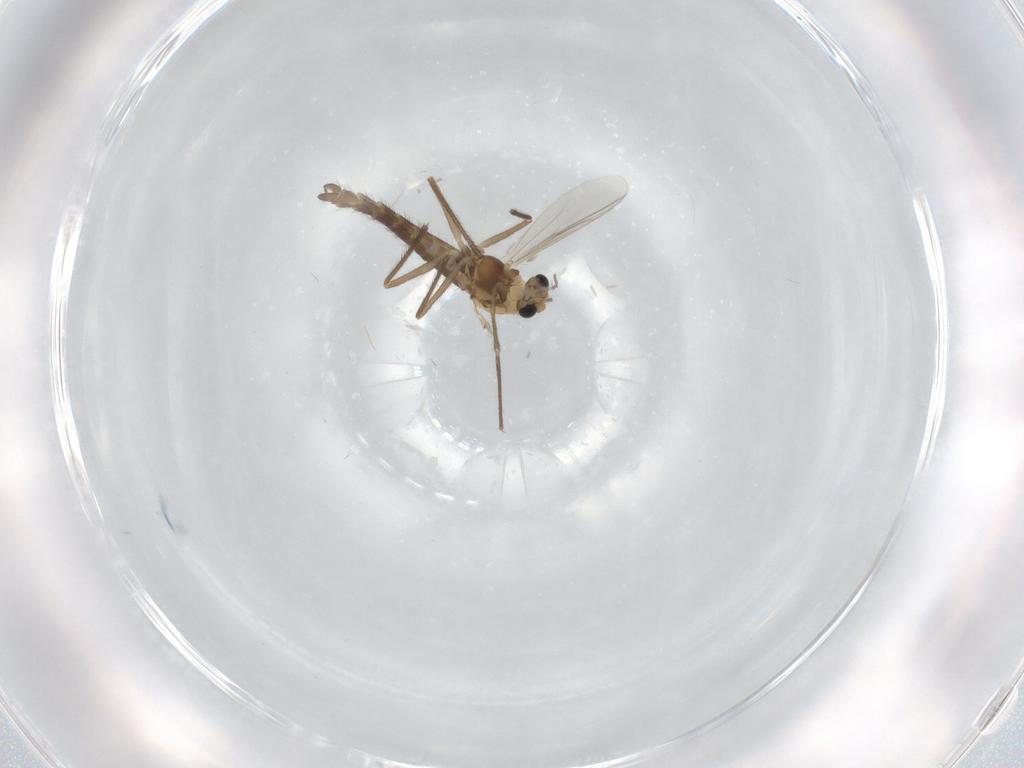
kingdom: Animalia
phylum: Arthropoda
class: Insecta
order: Diptera
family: Chironomidae
